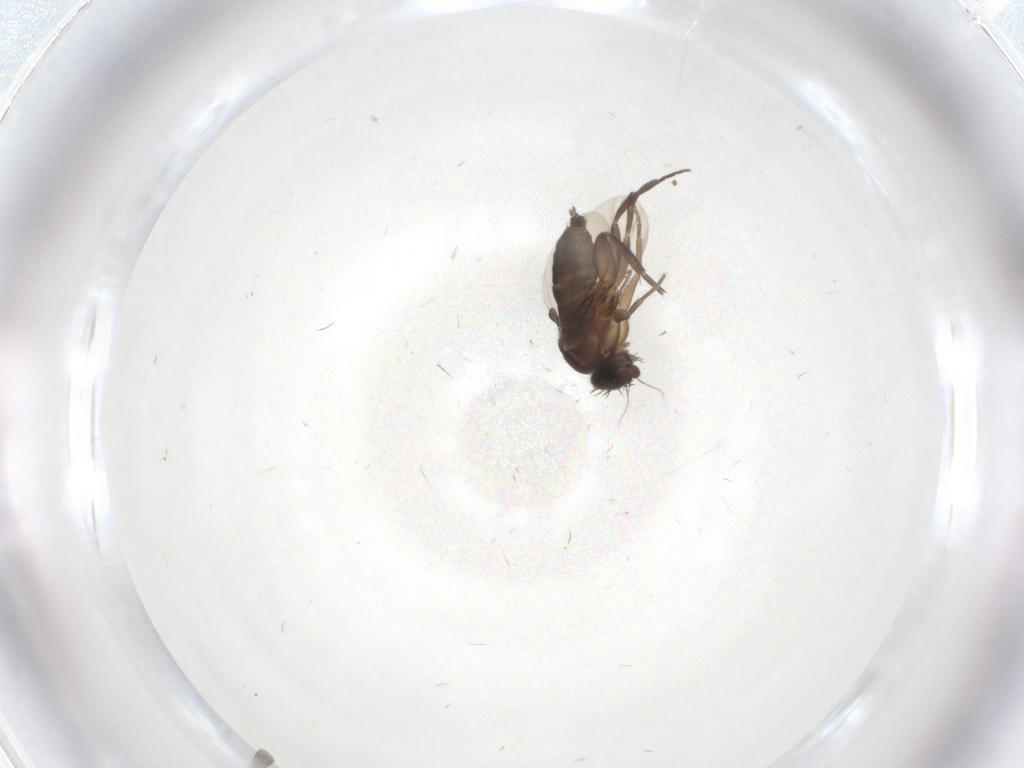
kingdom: Animalia
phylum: Arthropoda
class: Insecta
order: Diptera
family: Phoridae
